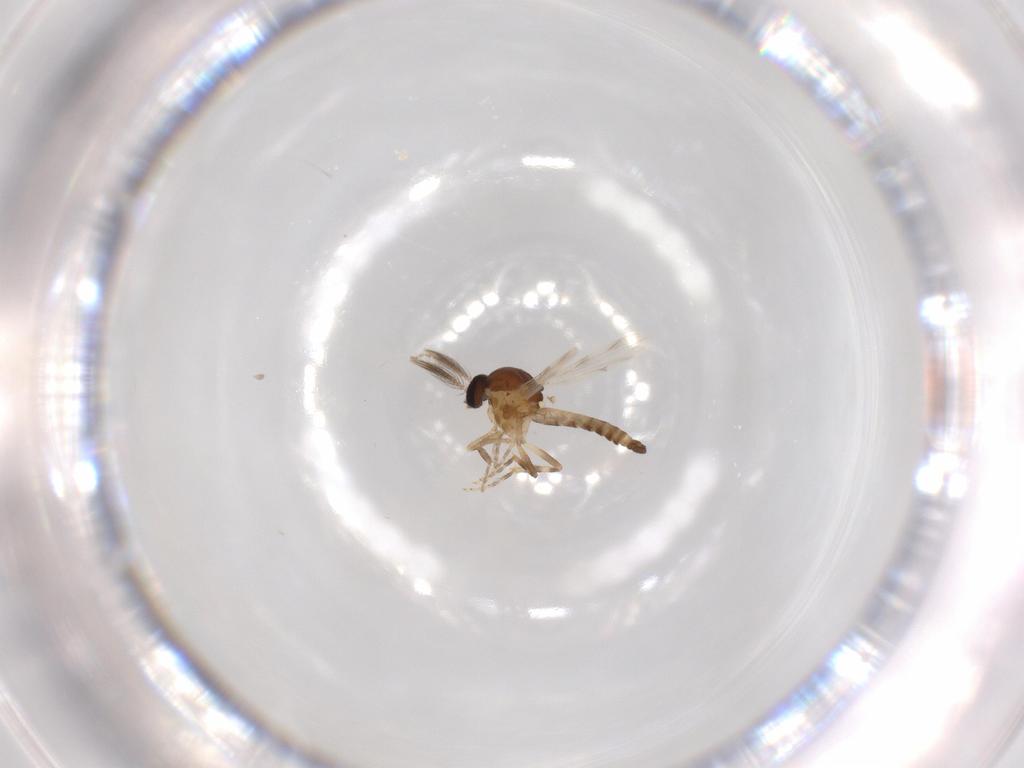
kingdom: Animalia
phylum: Arthropoda
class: Insecta
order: Diptera
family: Ceratopogonidae
